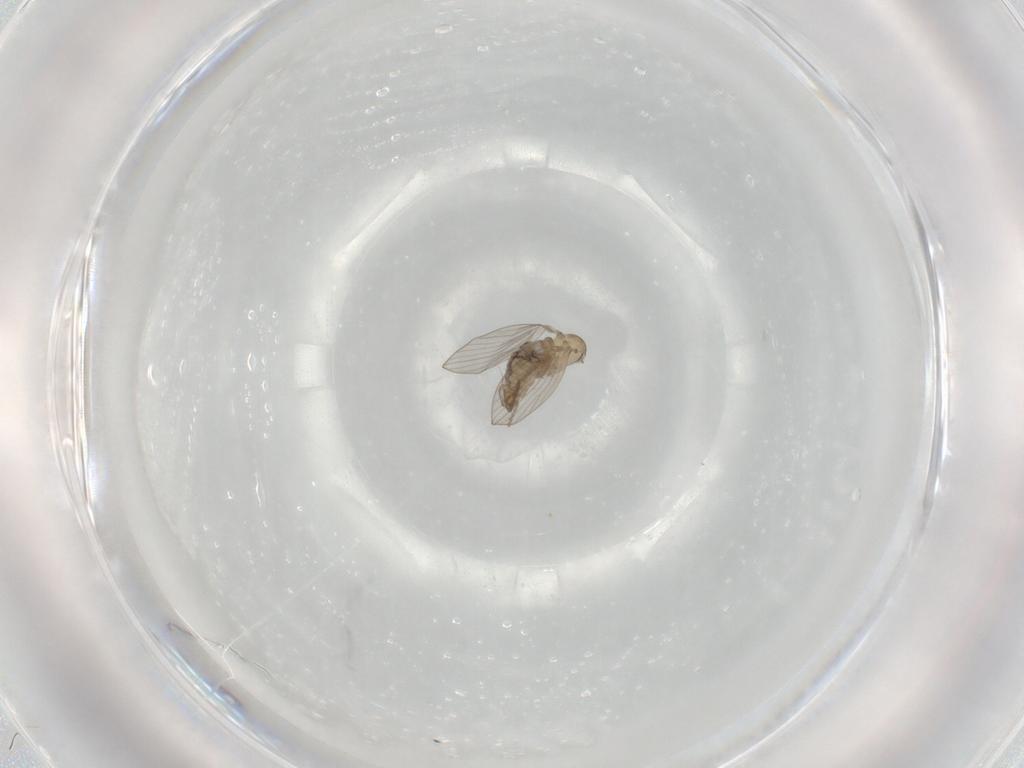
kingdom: Animalia
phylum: Arthropoda
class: Insecta
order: Diptera
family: Psychodidae
